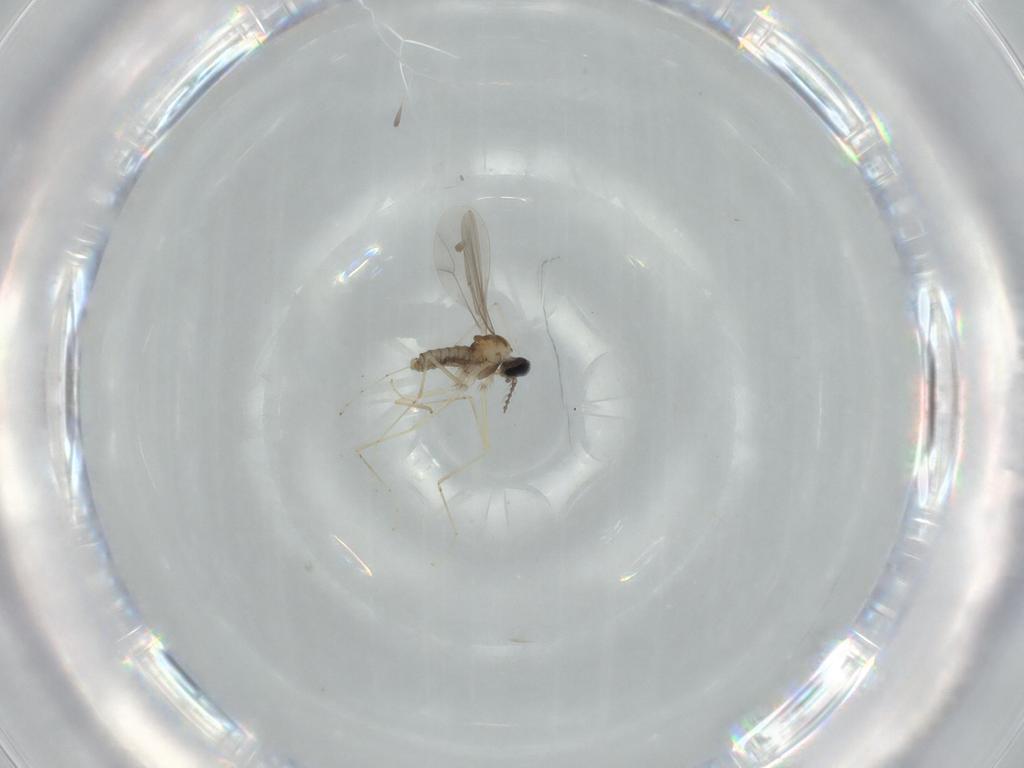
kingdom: Animalia
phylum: Arthropoda
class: Insecta
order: Diptera
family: Cecidomyiidae
